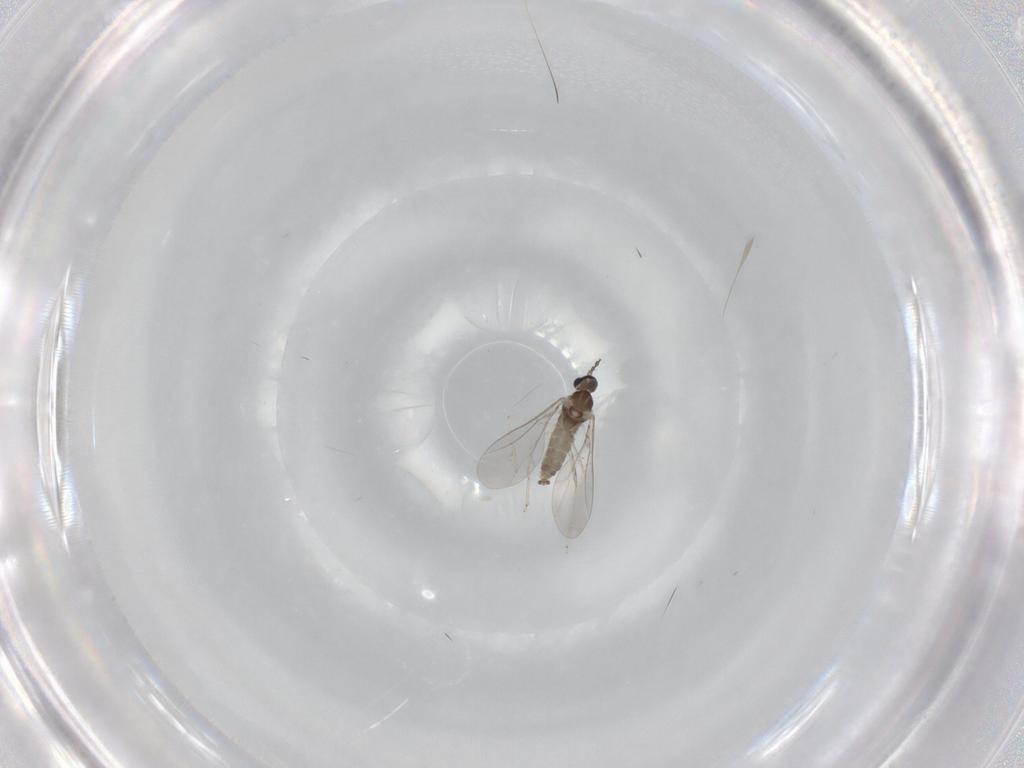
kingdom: Animalia
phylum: Arthropoda
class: Insecta
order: Diptera
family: Cecidomyiidae
